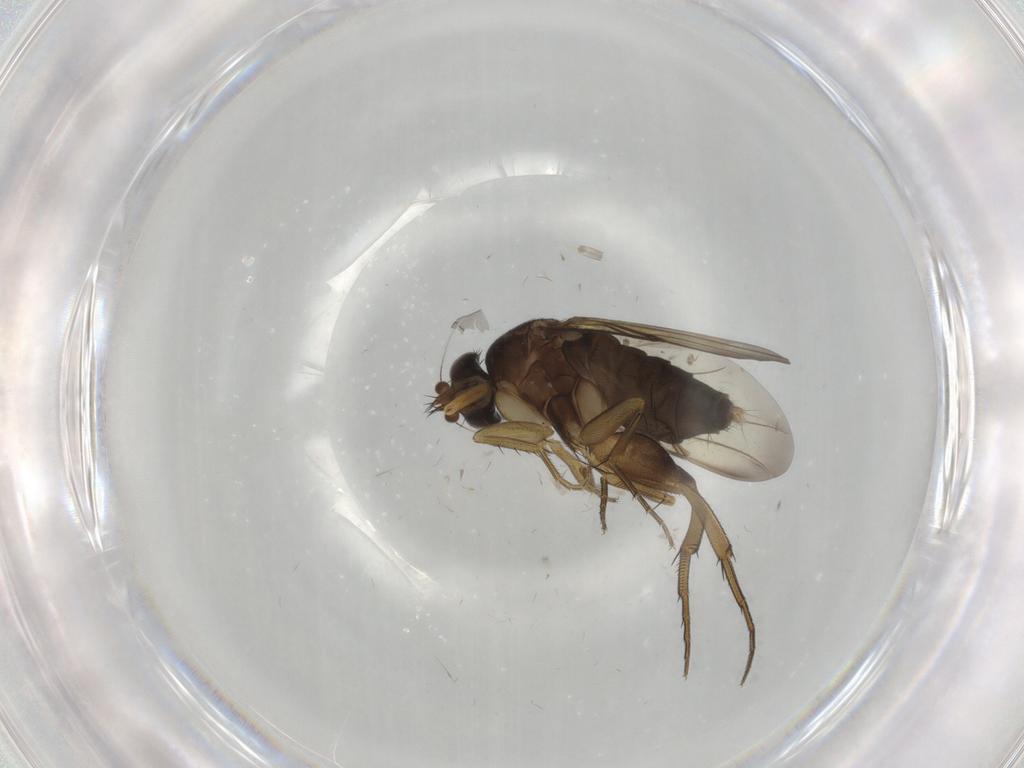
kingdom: Animalia
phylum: Arthropoda
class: Insecta
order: Diptera
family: Phoridae
